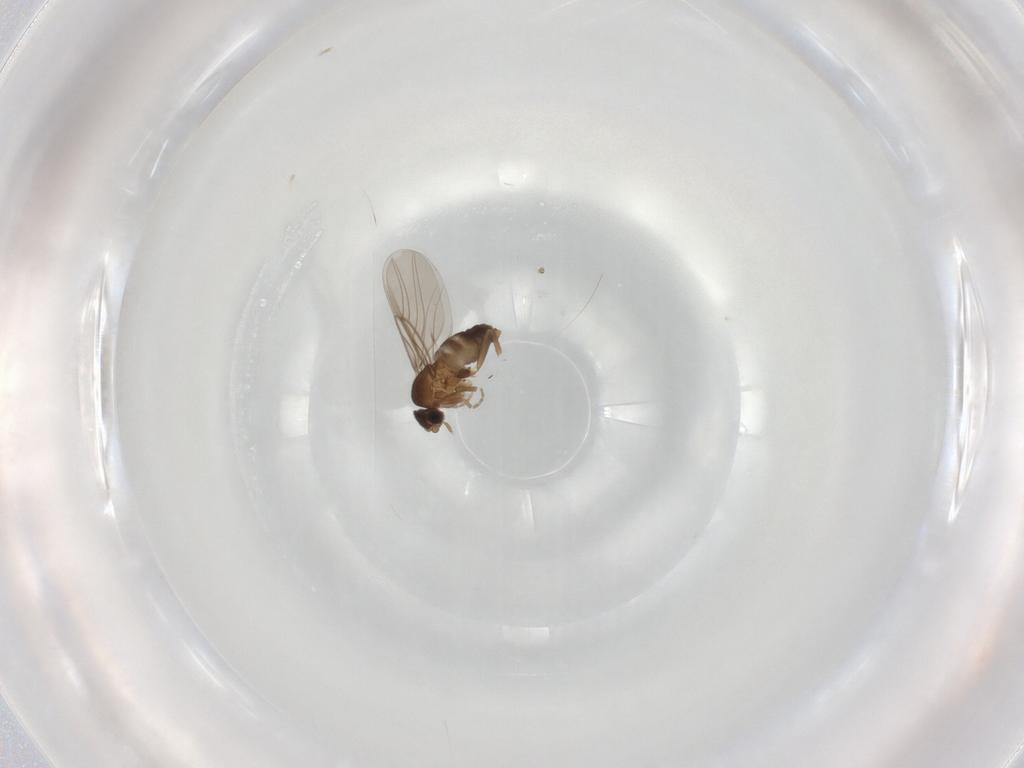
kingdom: Animalia
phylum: Arthropoda
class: Insecta
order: Diptera
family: Phoridae
